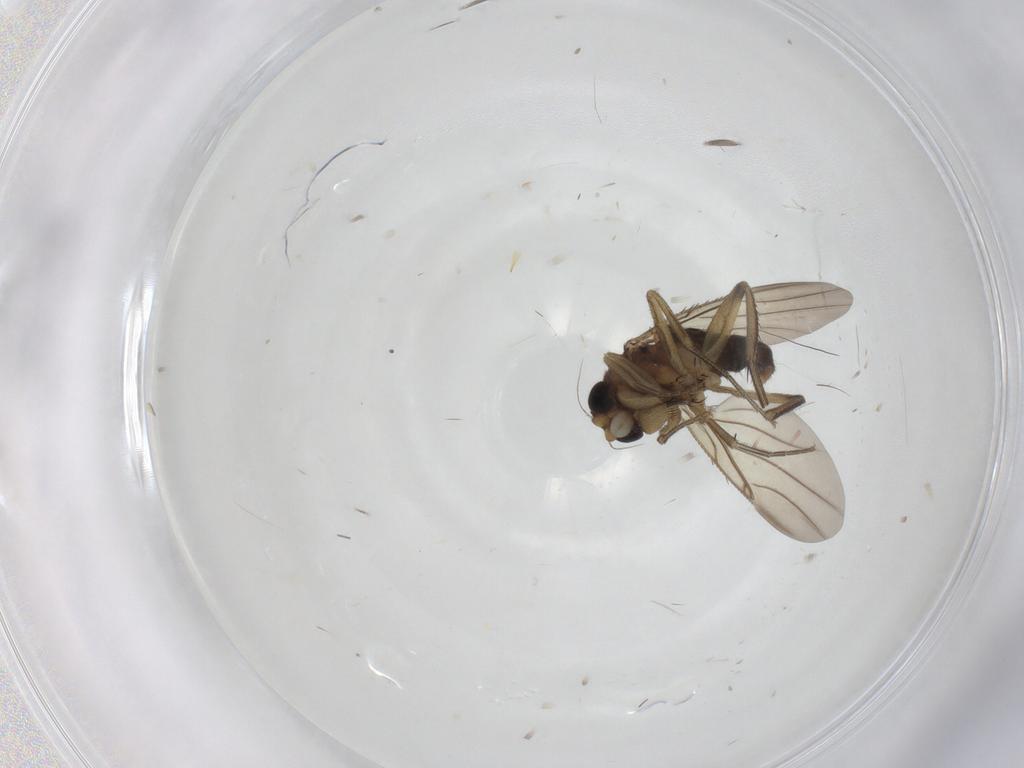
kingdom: Animalia
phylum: Arthropoda
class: Insecta
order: Diptera
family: Phoridae
